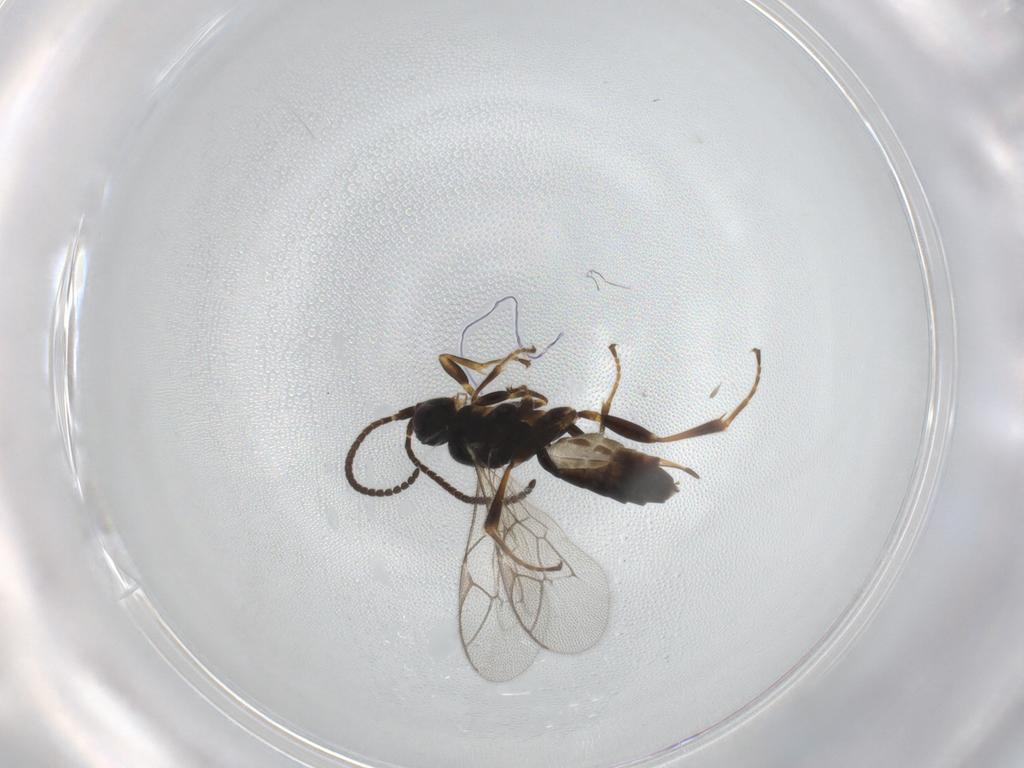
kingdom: Animalia
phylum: Arthropoda
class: Insecta
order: Hymenoptera
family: Ichneumonidae
